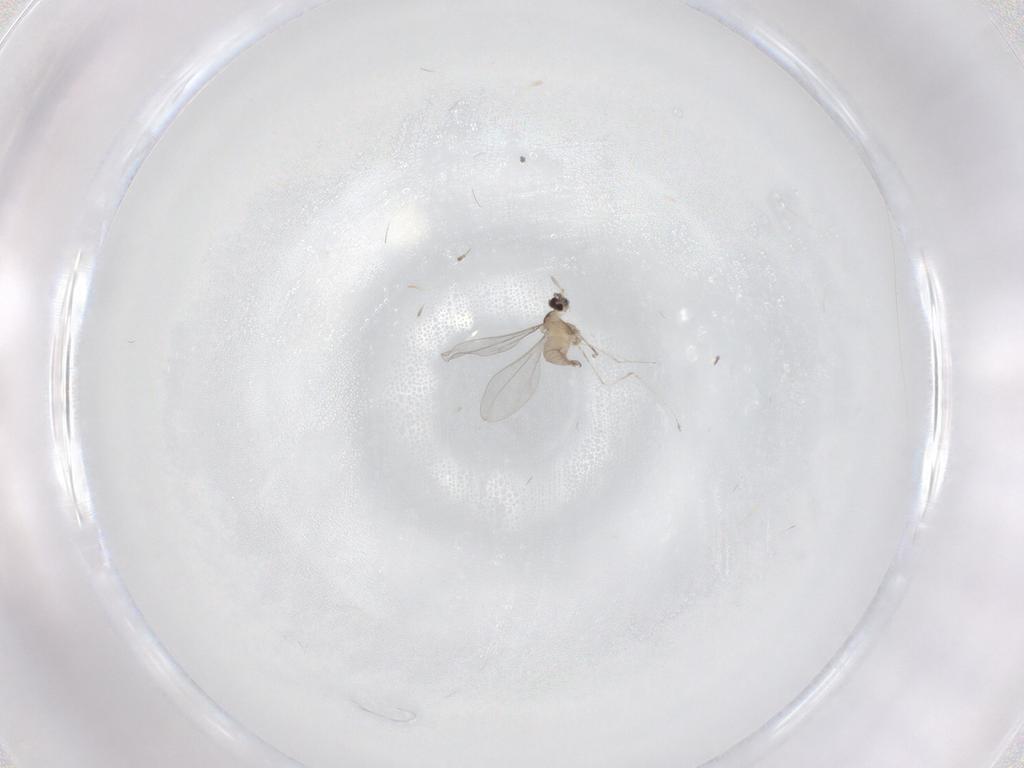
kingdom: Animalia
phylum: Arthropoda
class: Insecta
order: Diptera
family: Cecidomyiidae
